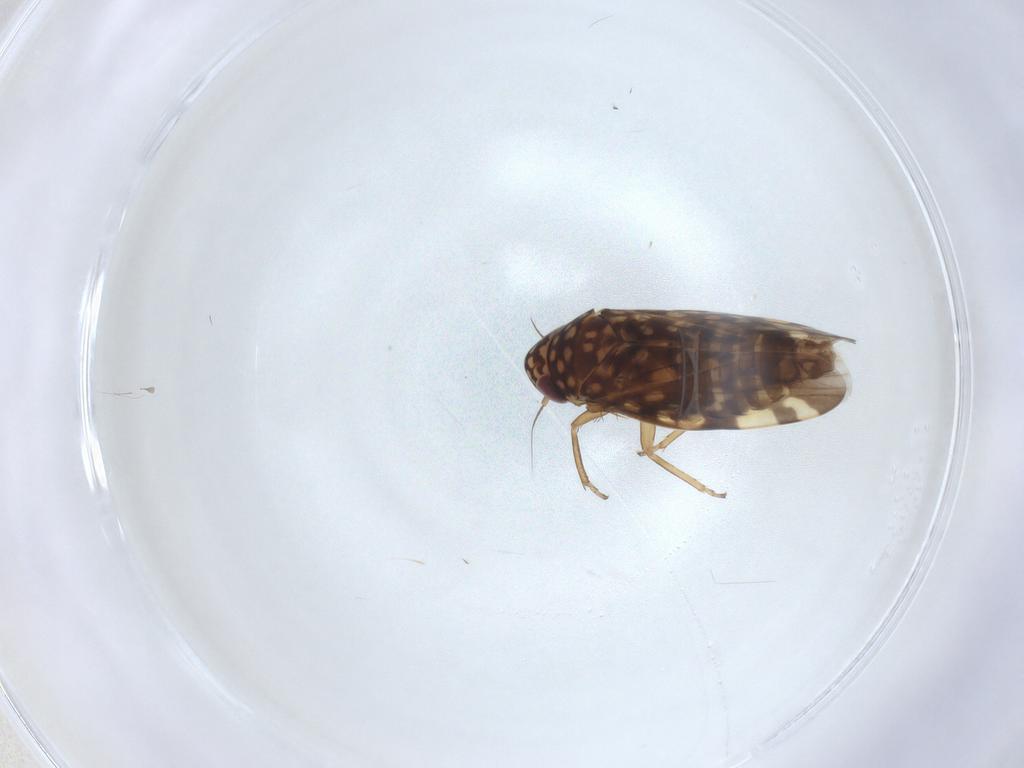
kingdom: Animalia
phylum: Arthropoda
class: Insecta
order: Hemiptera
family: Cicadellidae
